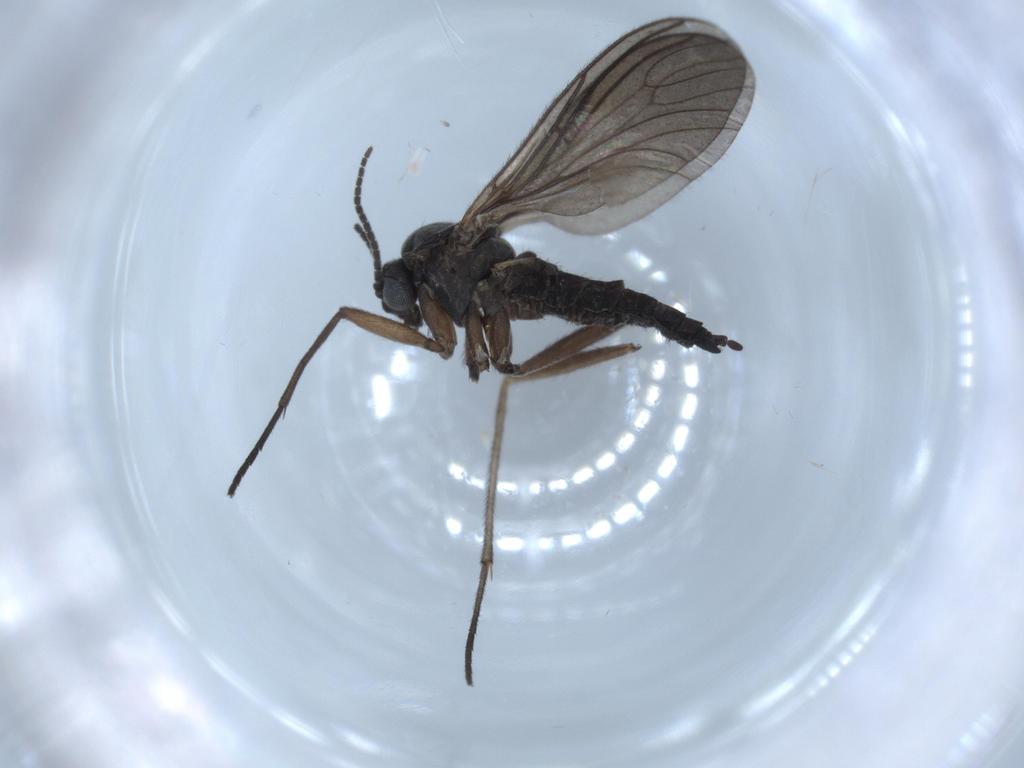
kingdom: Animalia
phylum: Arthropoda
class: Insecta
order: Diptera
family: Sciaridae
